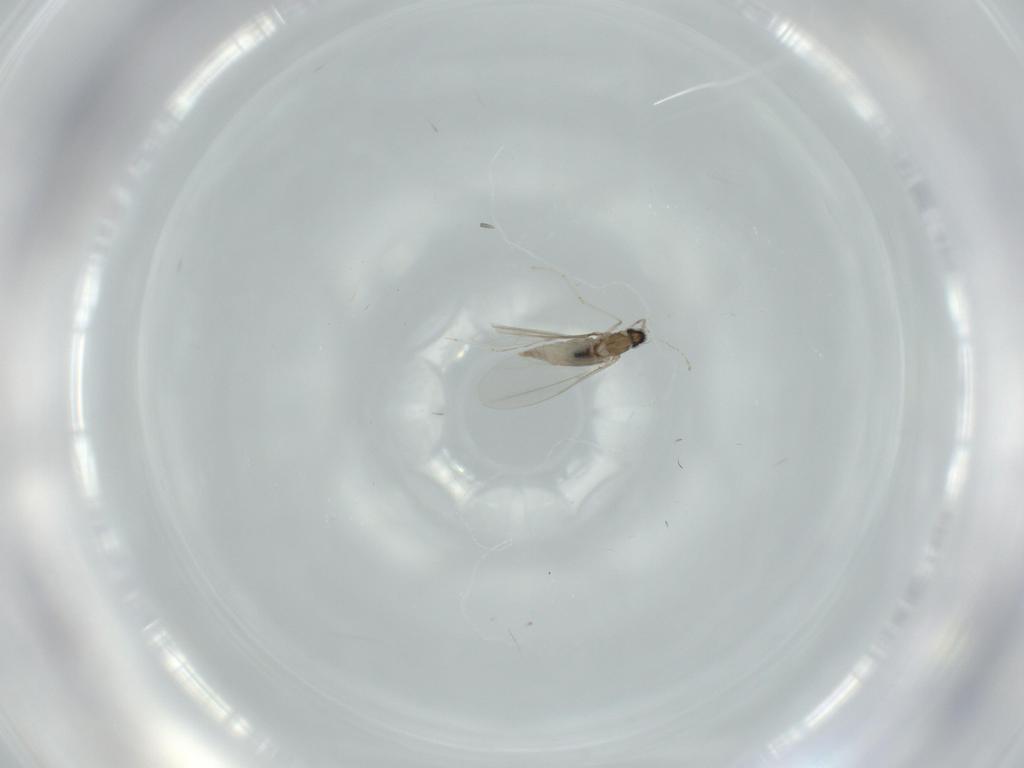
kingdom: Animalia
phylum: Arthropoda
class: Insecta
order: Diptera
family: Cecidomyiidae
